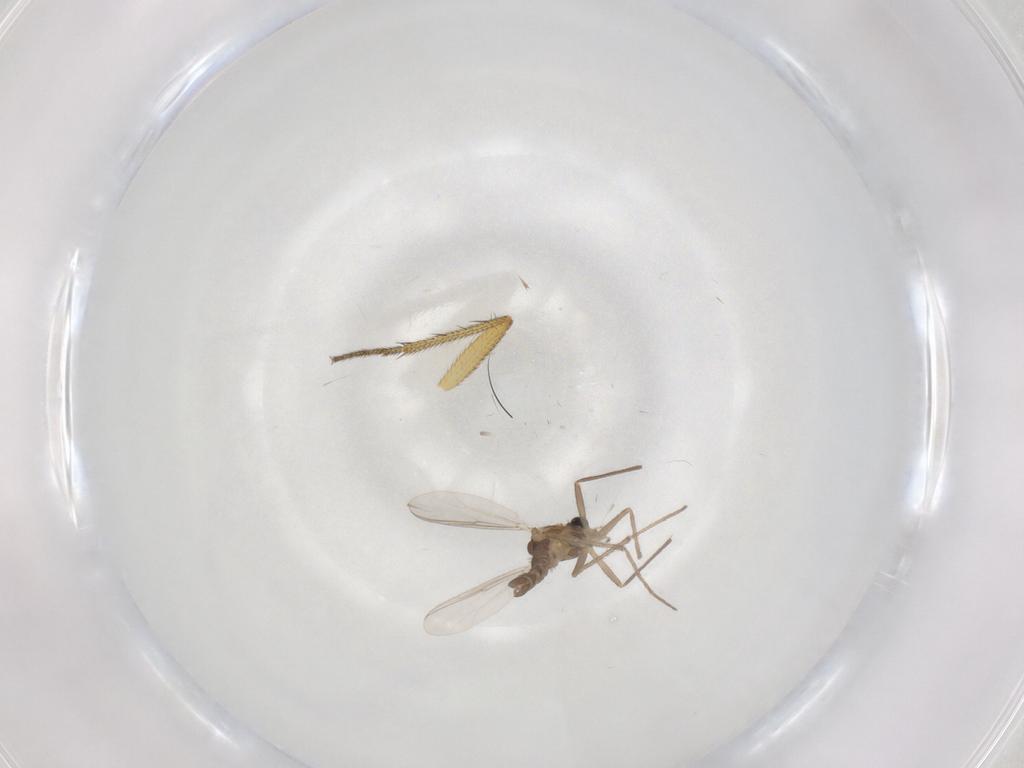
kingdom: Animalia
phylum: Arthropoda
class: Insecta
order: Diptera
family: Chironomidae
